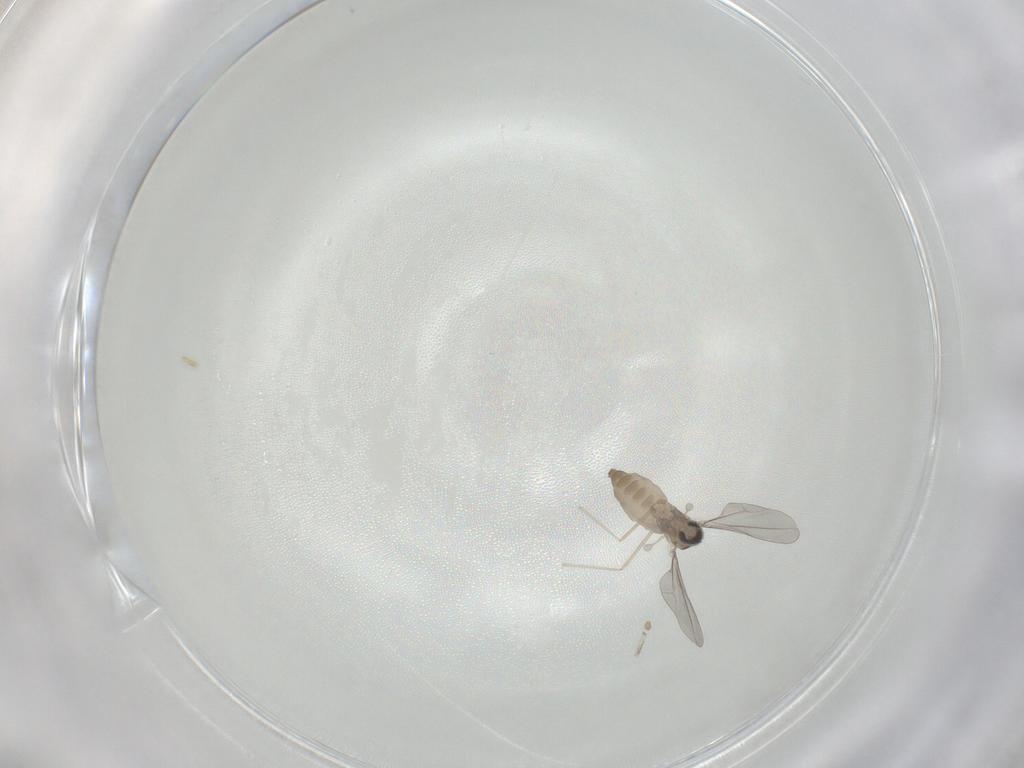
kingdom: Animalia
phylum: Arthropoda
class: Insecta
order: Diptera
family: Cecidomyiidae
